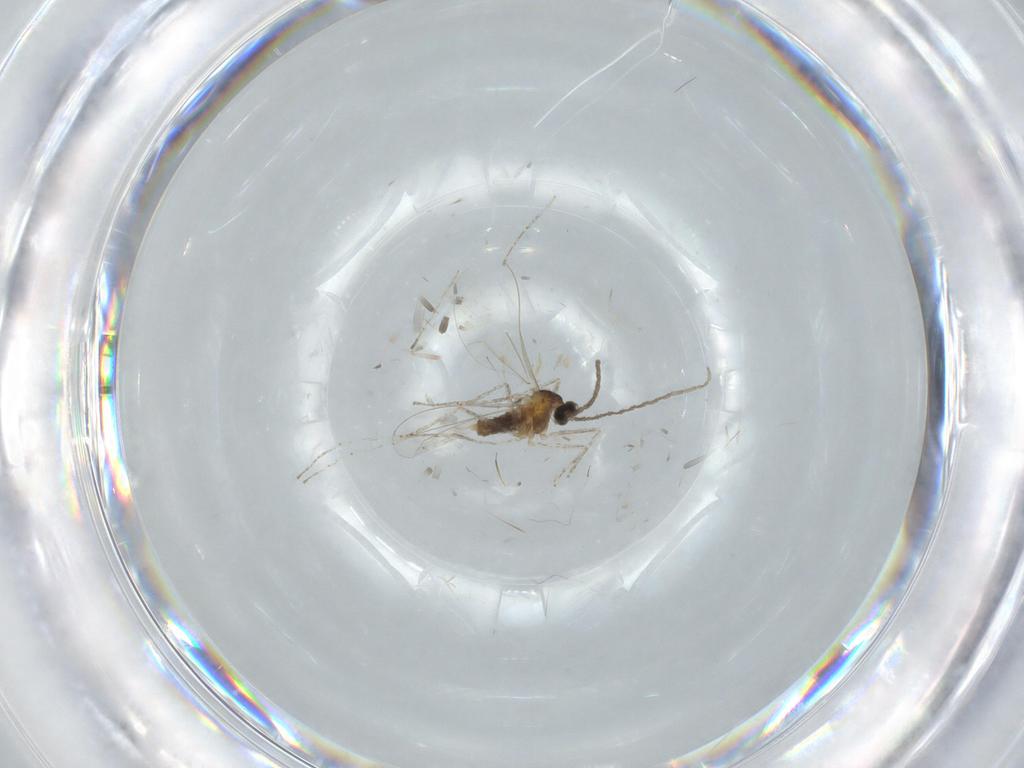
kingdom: Animalia
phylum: Arthropoda
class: Insecta
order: Diptera
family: Cecidomyiidae
